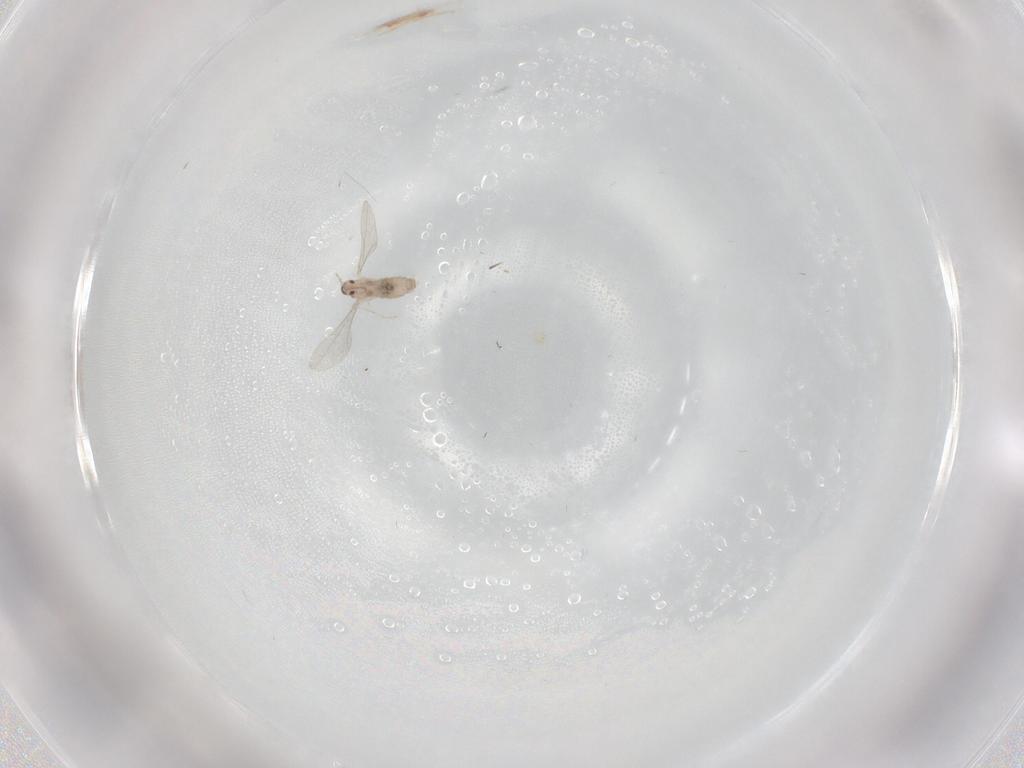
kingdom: Animalia
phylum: Arthropoda
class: Insecta
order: Diptera
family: Cecidomyiidae
